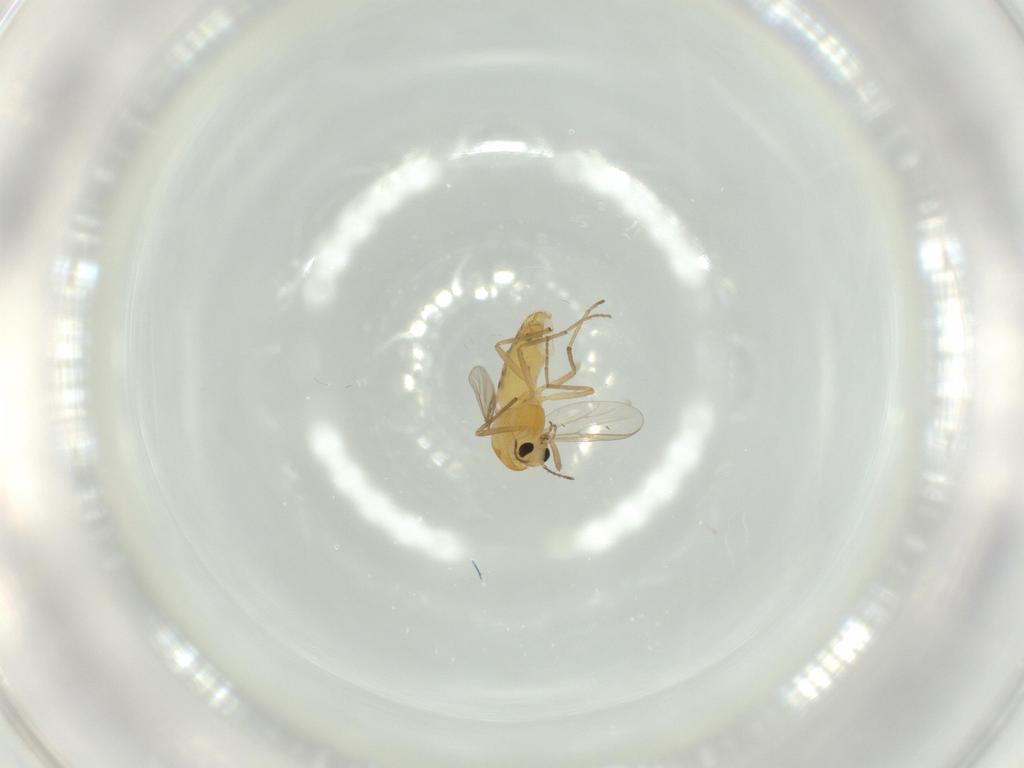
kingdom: Animalia
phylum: Arthropoda
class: Insecta
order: Diptera
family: Chironomidae
